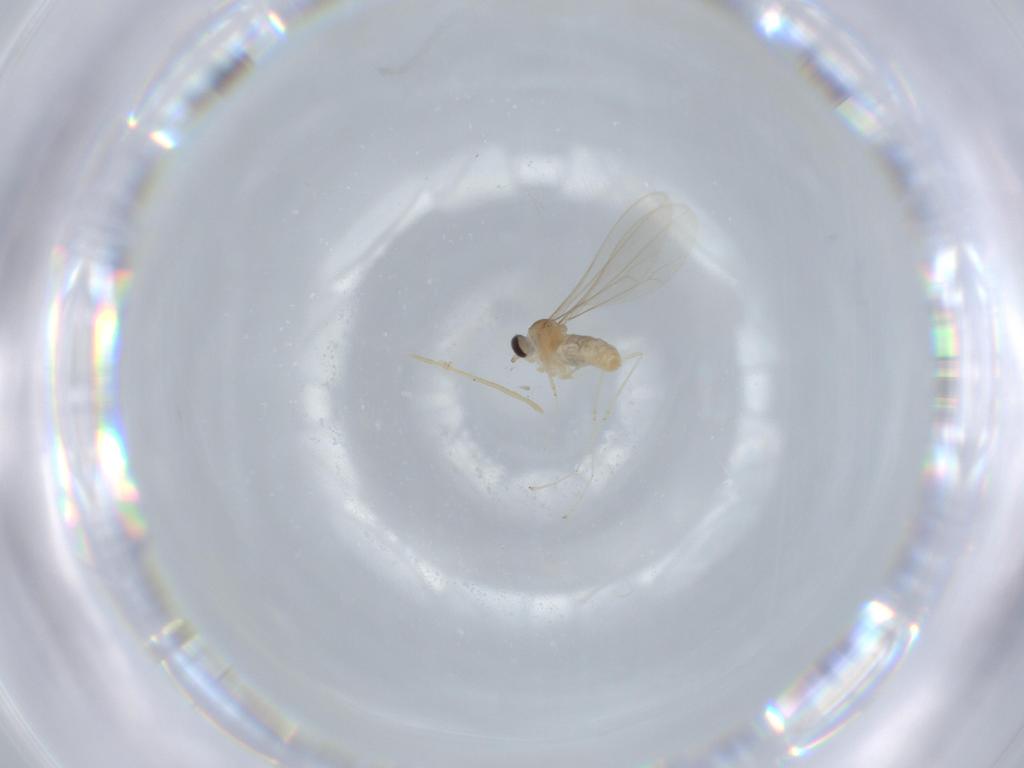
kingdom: Animalia
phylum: Arthropoda
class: Insecta
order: Diptera
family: Cecidomyiidae
